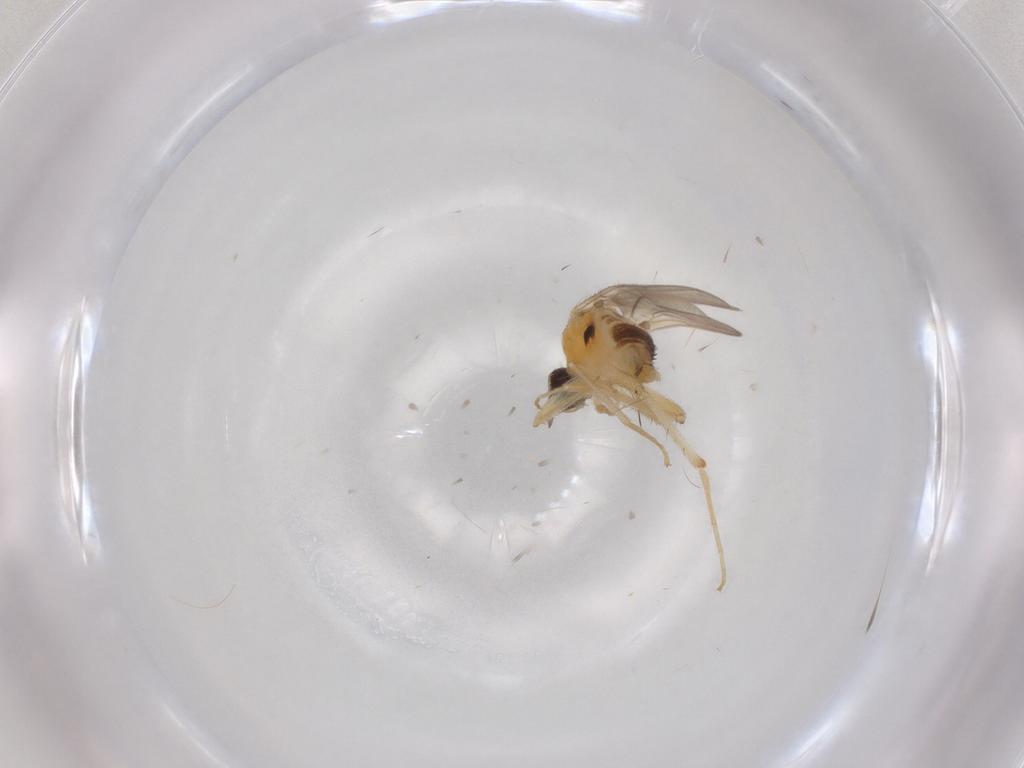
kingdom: Animalia
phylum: Arthropoda
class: Insecta
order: Diptera
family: Hybotidae
